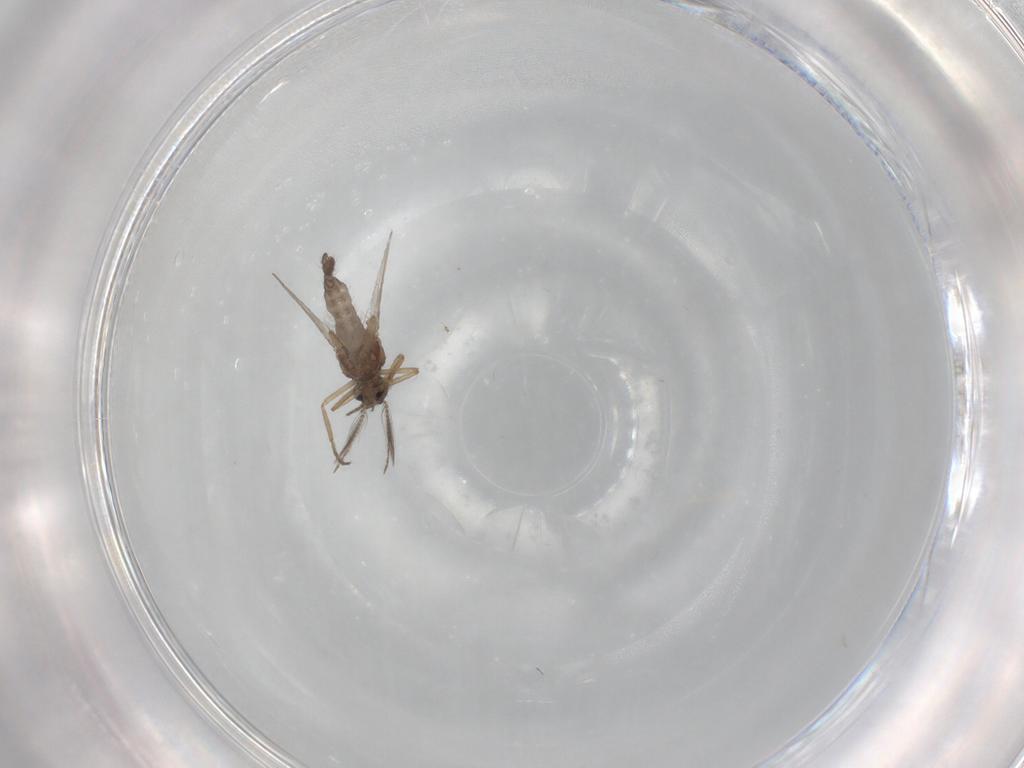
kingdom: Animalia
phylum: Arthropoda
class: Insecta
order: Diptera
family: Ceratopogonidae
